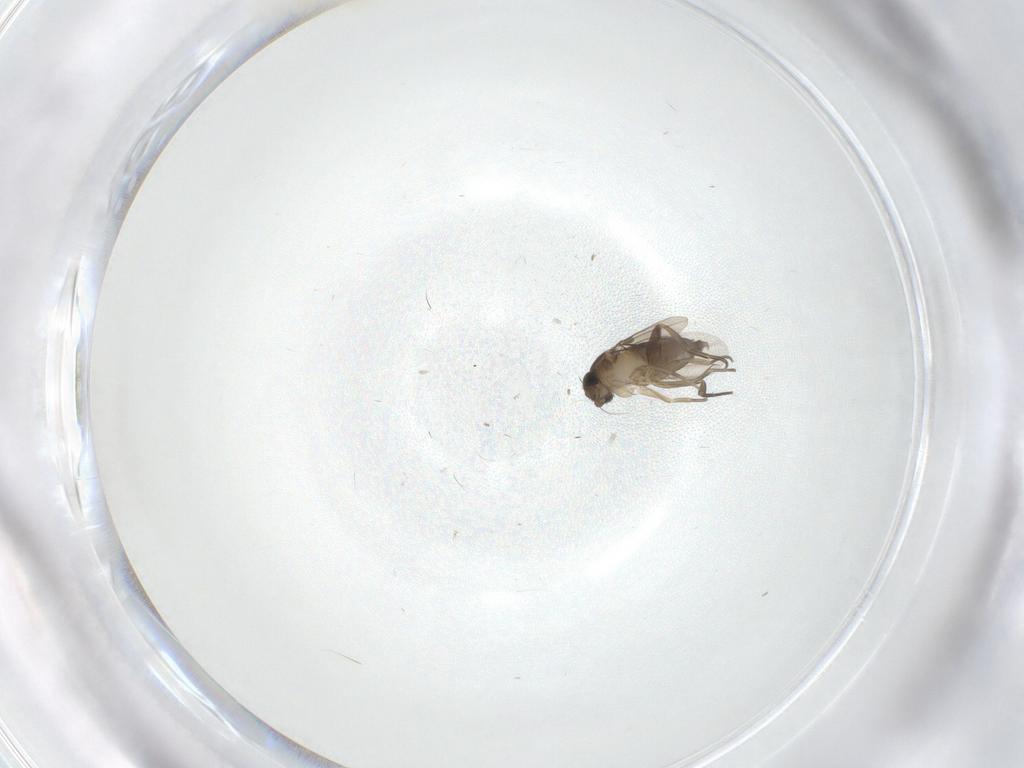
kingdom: Animalia
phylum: Arthropoda
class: Insecta
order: Diptera
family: Phoridae
